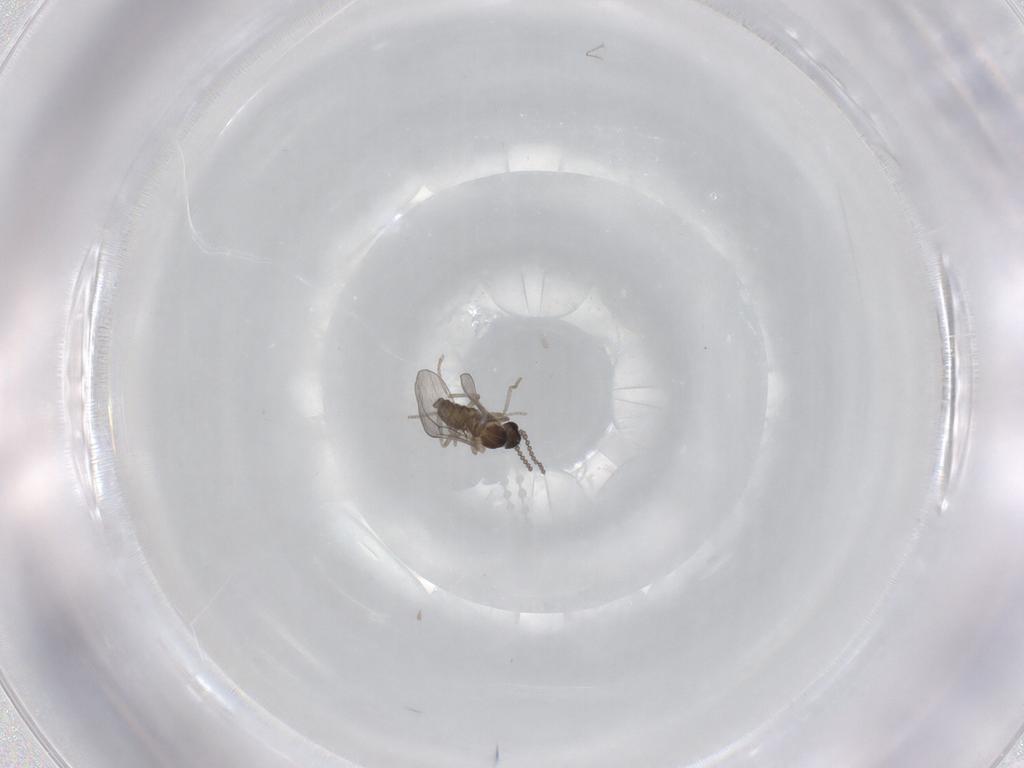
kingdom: Animalia
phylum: Arthropoda
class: Insecta
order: Diptera
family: Cecidomyiidae
